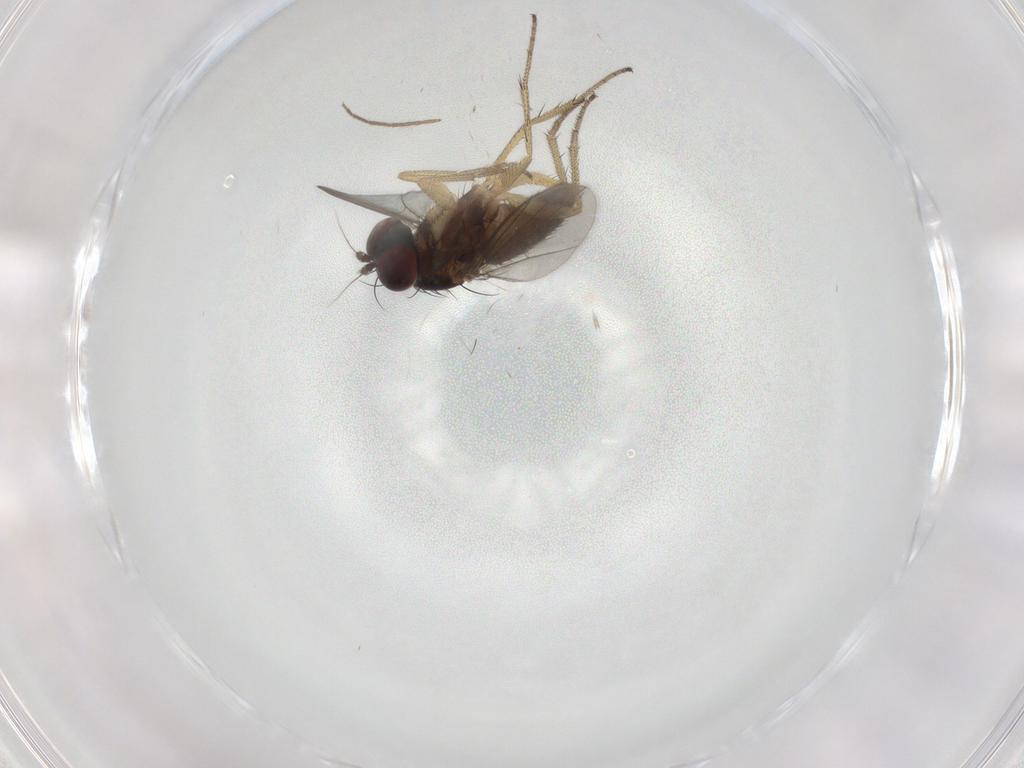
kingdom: Animalia
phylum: Arthropoda
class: Insecta
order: Diptera
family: Dolichopodidae
